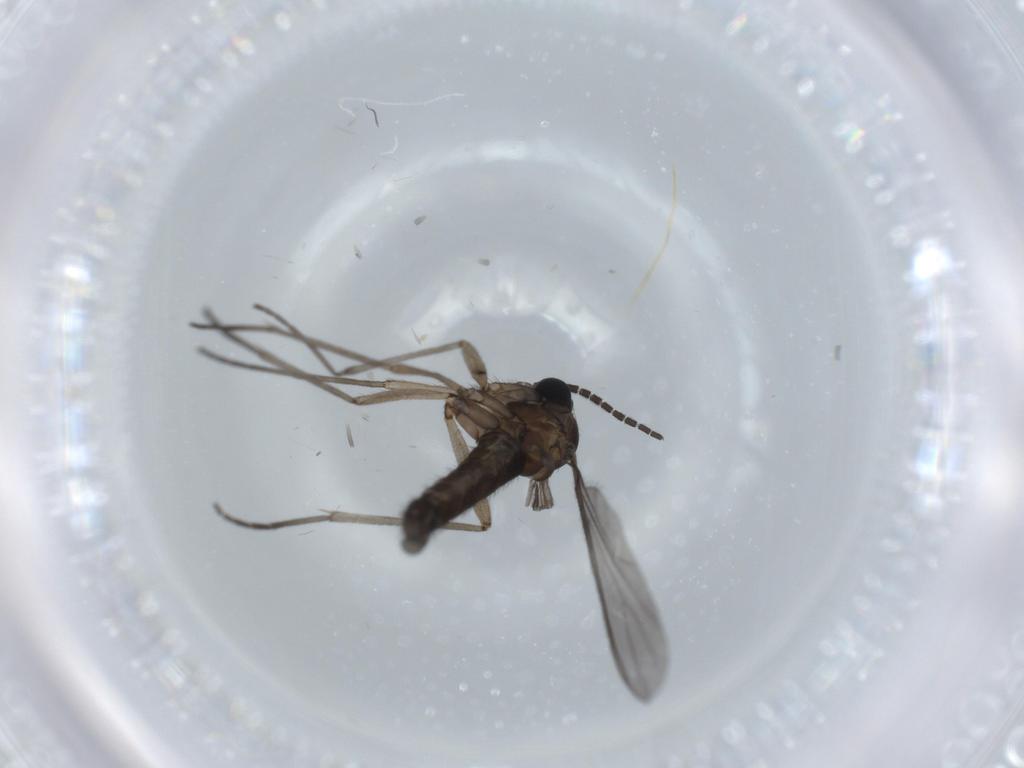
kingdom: Animalia
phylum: Arthropoda
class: Insecta
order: Diptera
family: Sciaridae
